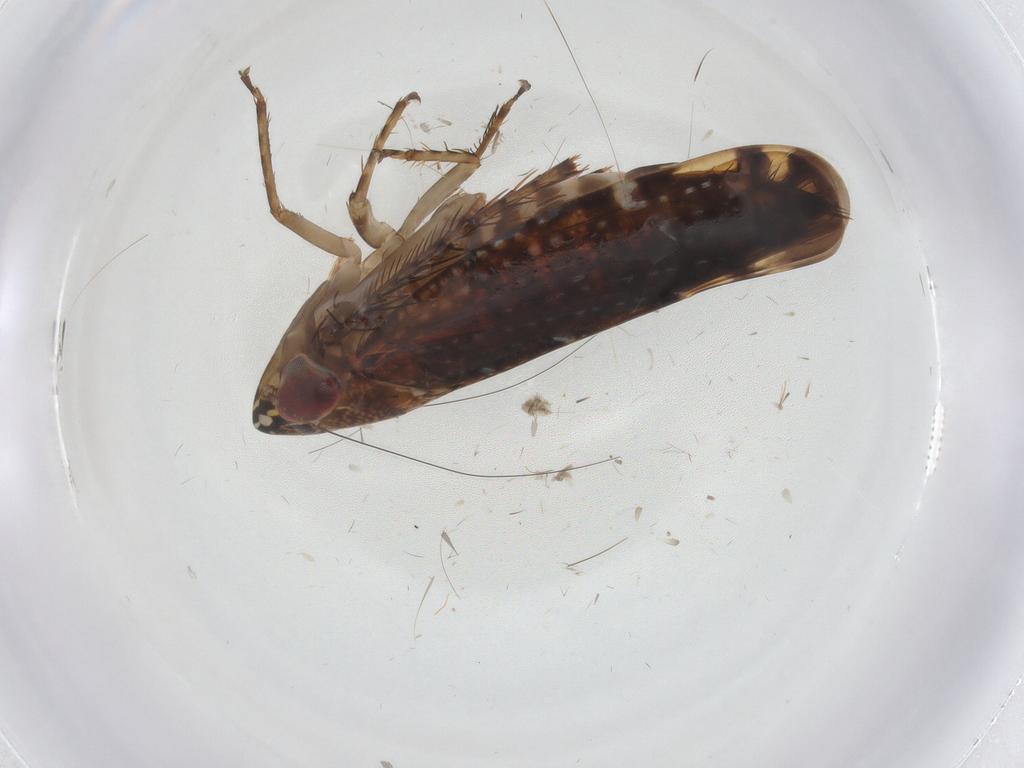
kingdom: Animalia
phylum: Arthropoda
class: Insecta
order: Hemiptera
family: Cicadellidae
